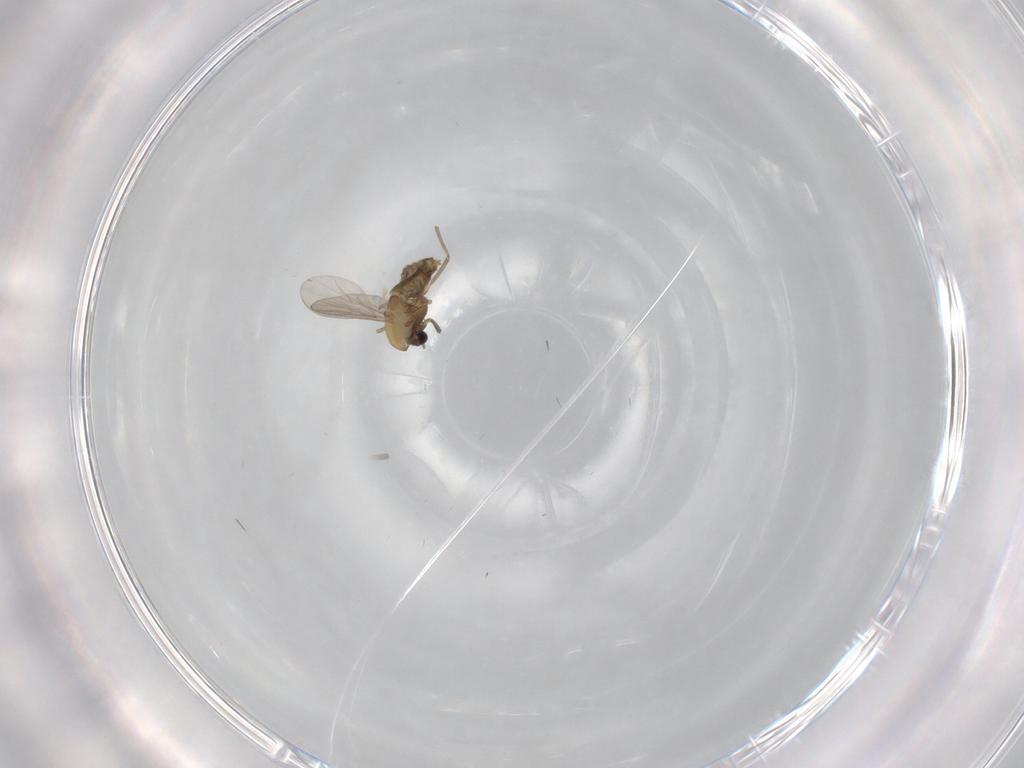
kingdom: Animalia
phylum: Arthropoda
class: Insecta
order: Diptera
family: Chironomidae
